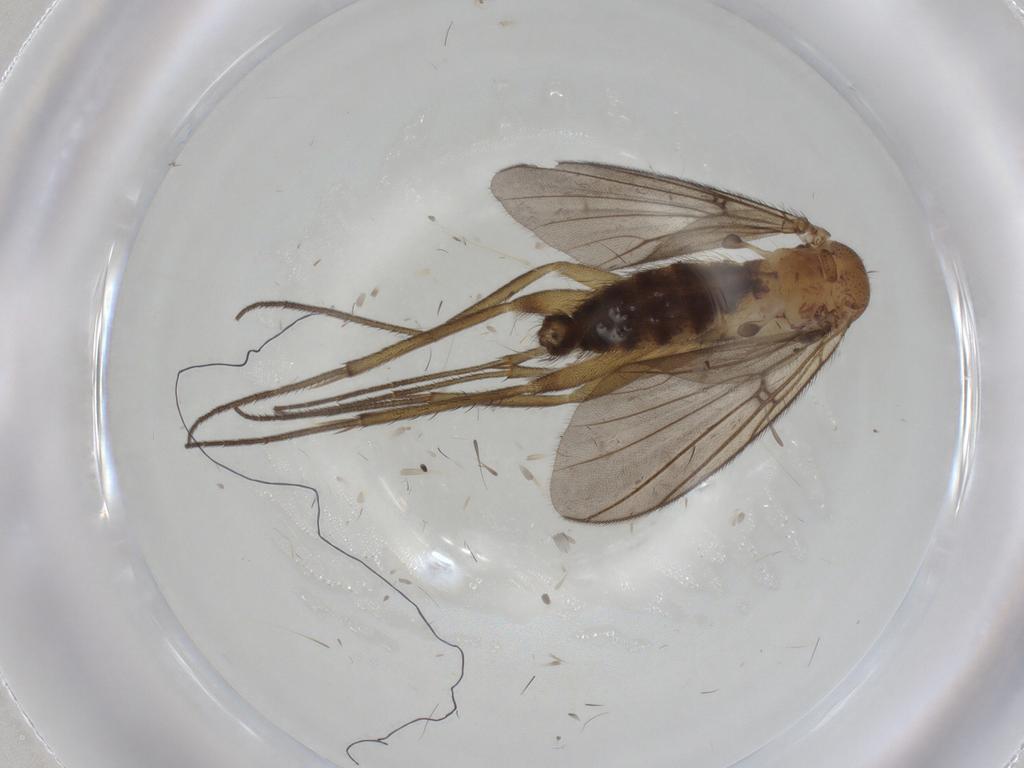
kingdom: Animalia
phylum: Arthropoda
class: Insecta
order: Diptera
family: Mycetophilidae
